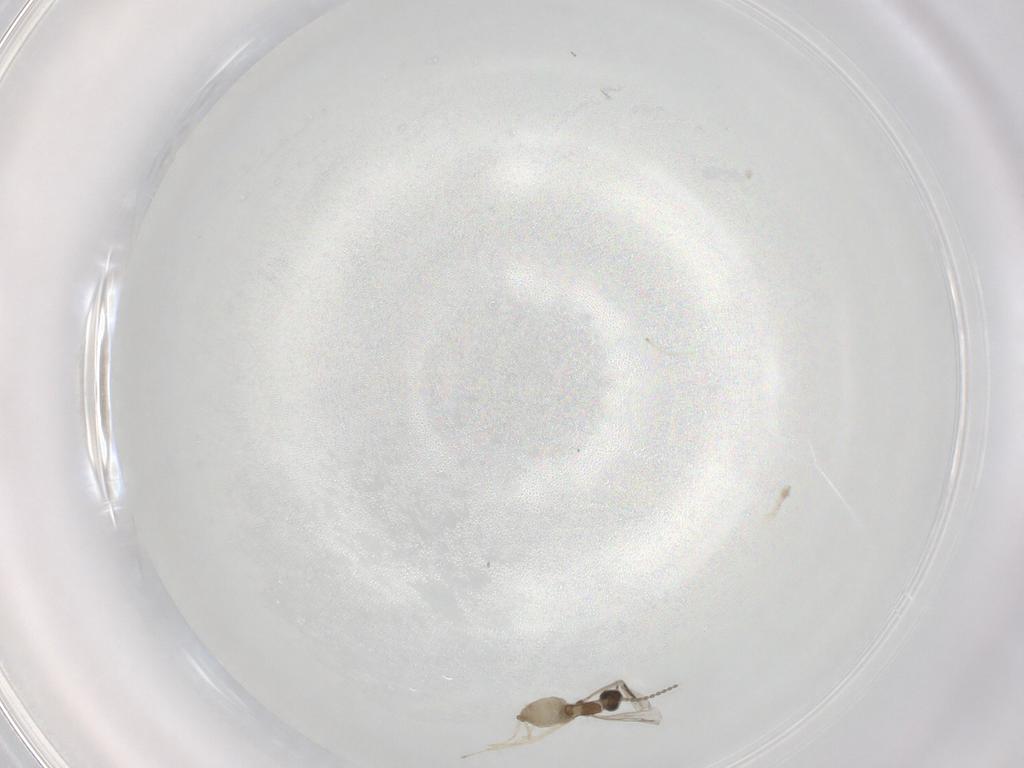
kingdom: Animalia
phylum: Arthropoda
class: Insecta
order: Diptera
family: Cecidomyiidae
